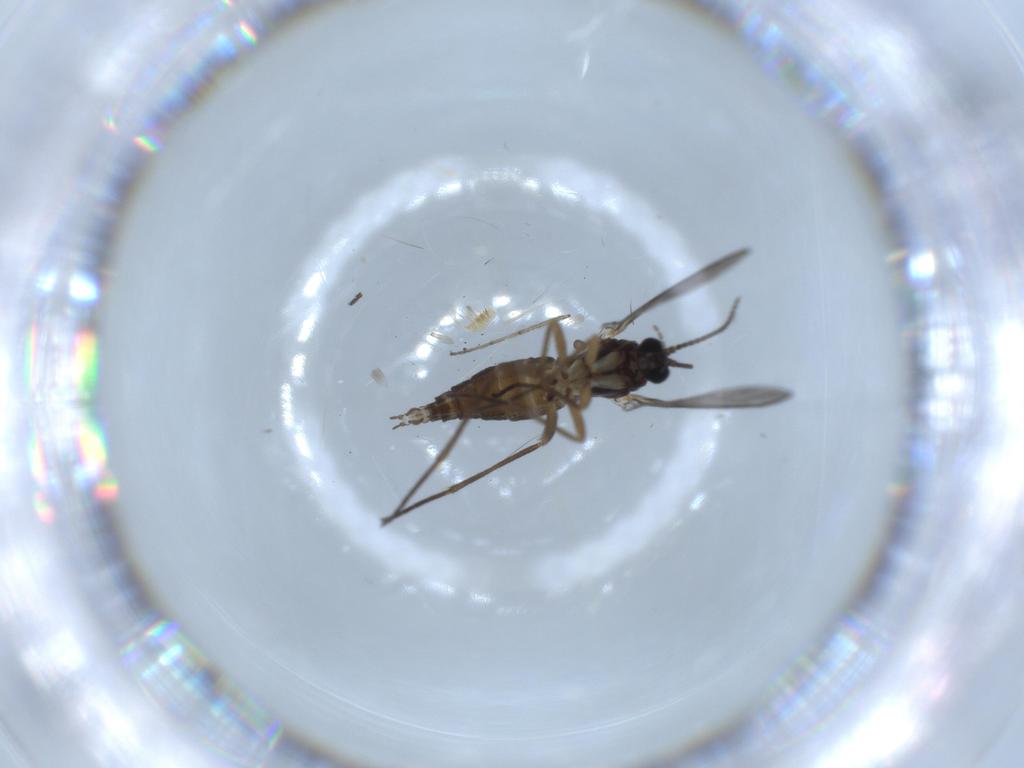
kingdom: Animalia
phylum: Arthropoda
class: Insecta
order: Diptera
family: Sciaridae
